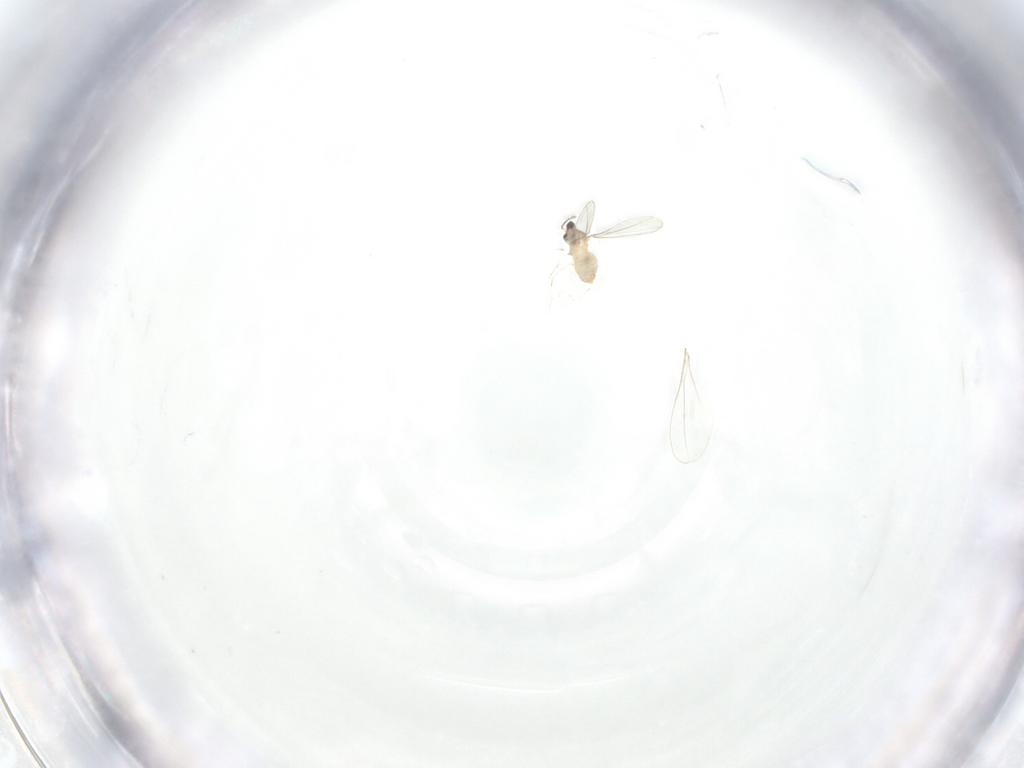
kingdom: Animalia
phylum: Arthropoda
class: Insecta
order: Diptera
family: Cecidomyiidae
